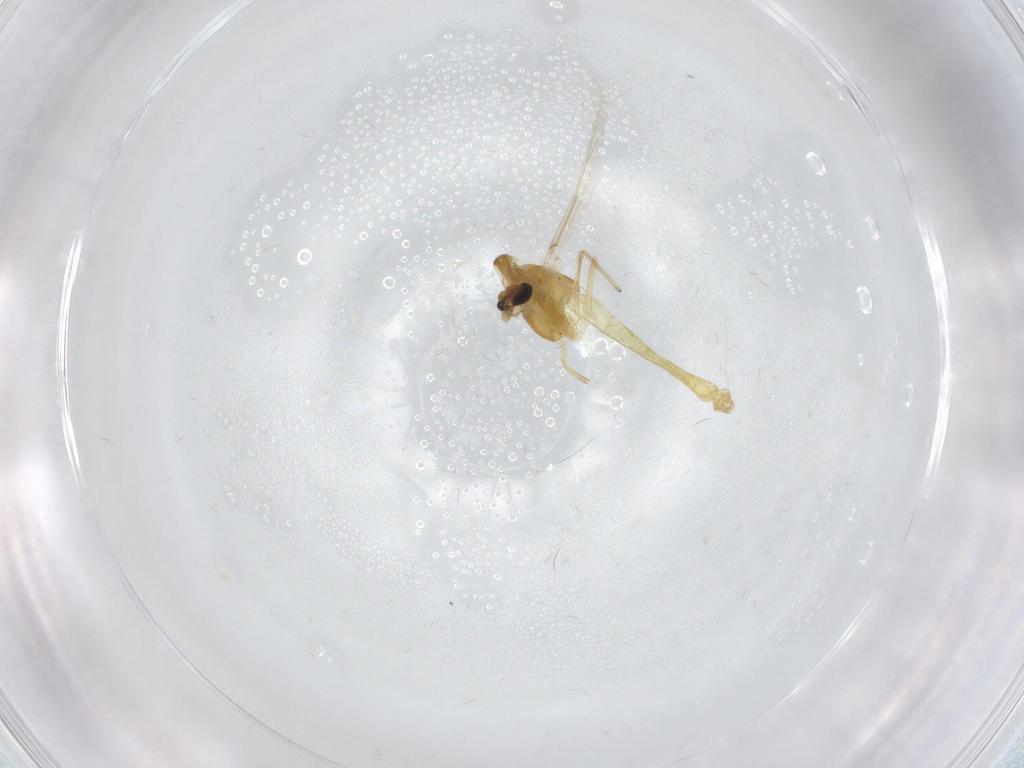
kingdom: Animalia
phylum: Arthropoda
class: Insecta
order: Diptera
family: Chironomidae
